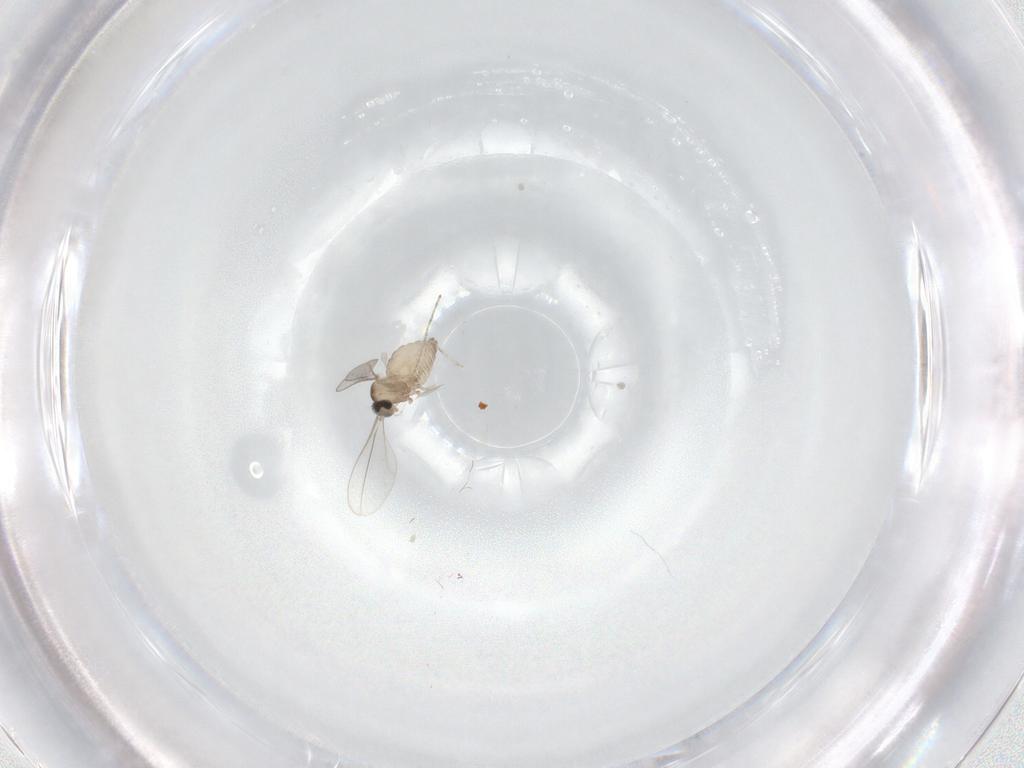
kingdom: Animalia
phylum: Arthropoda
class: Insecta
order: Diptera
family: Cecidomyiidae
